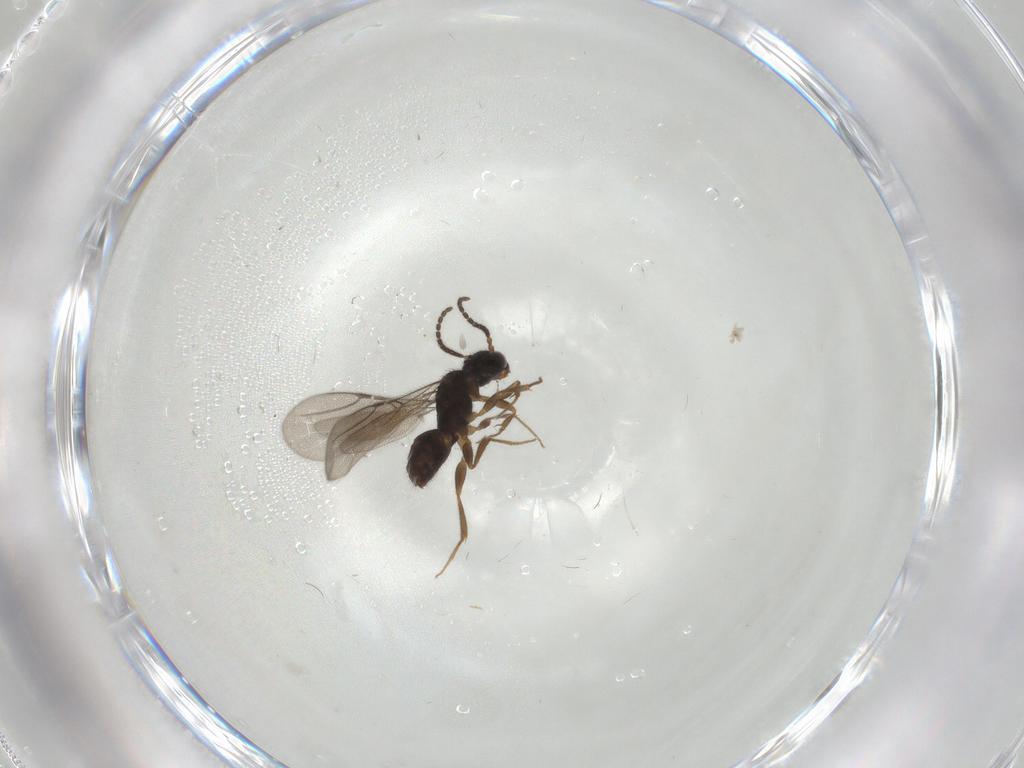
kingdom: Animalia
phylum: Arthropoda
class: Insecta
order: Hymenoptera
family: Bethylidae
